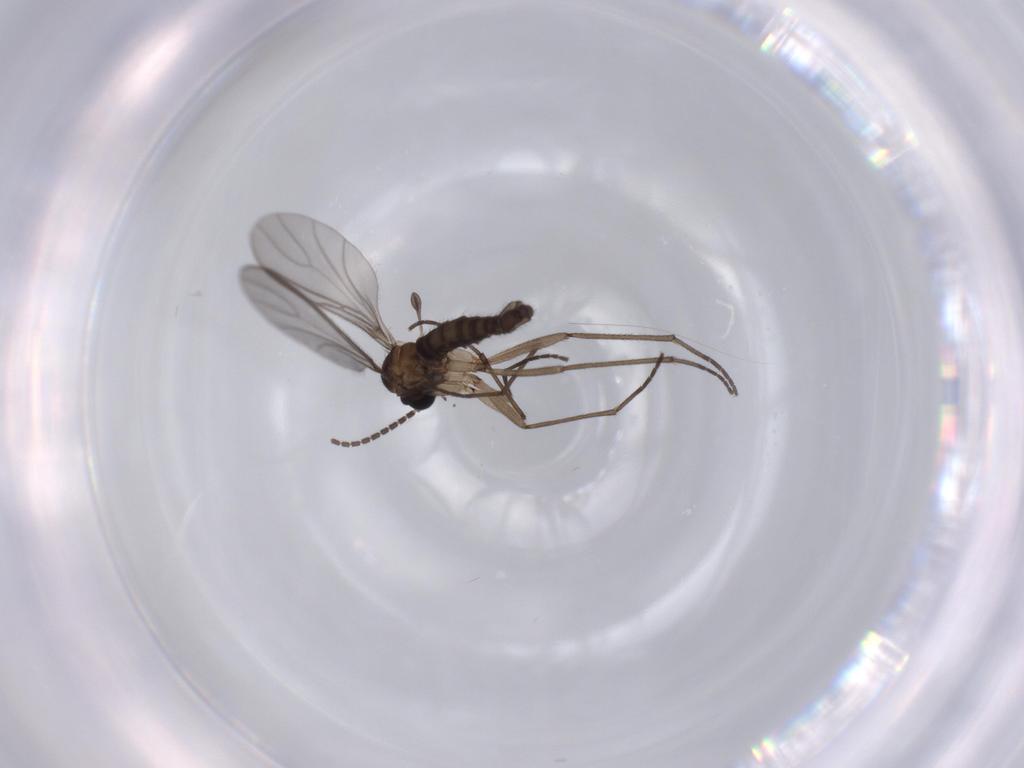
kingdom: Animalia
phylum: Arthropoda
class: Insecta
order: Diptera
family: Sciaridae
